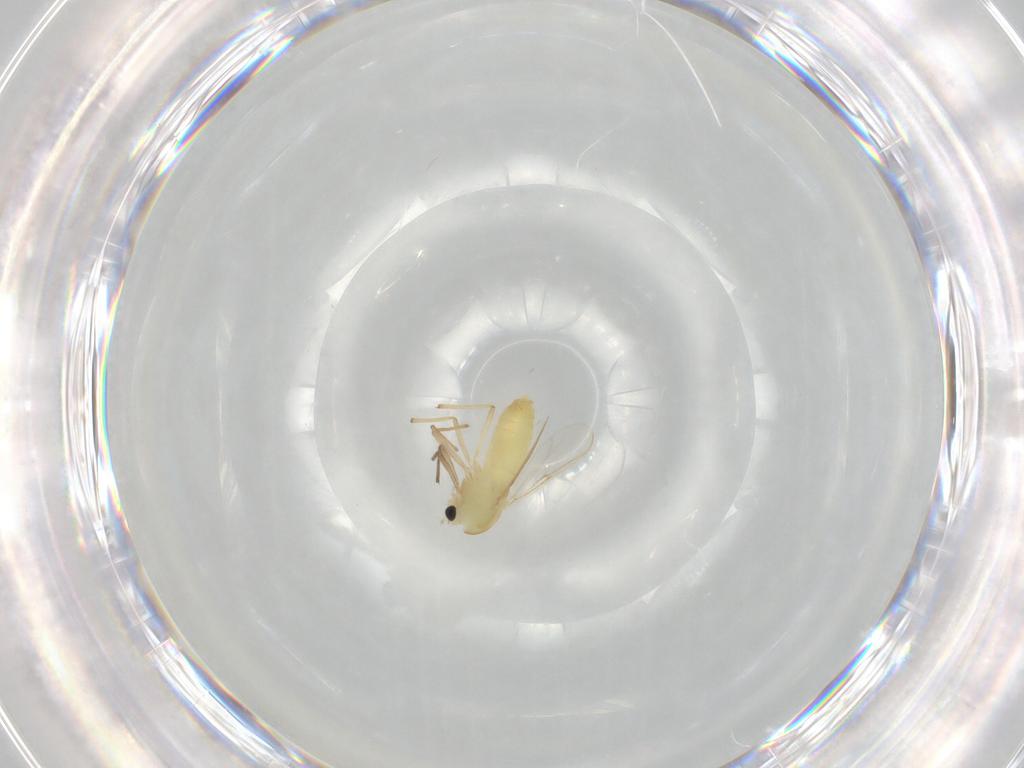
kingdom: Animalia
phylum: Arthropoda
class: Insecta
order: Diptera
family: Chironomidae
